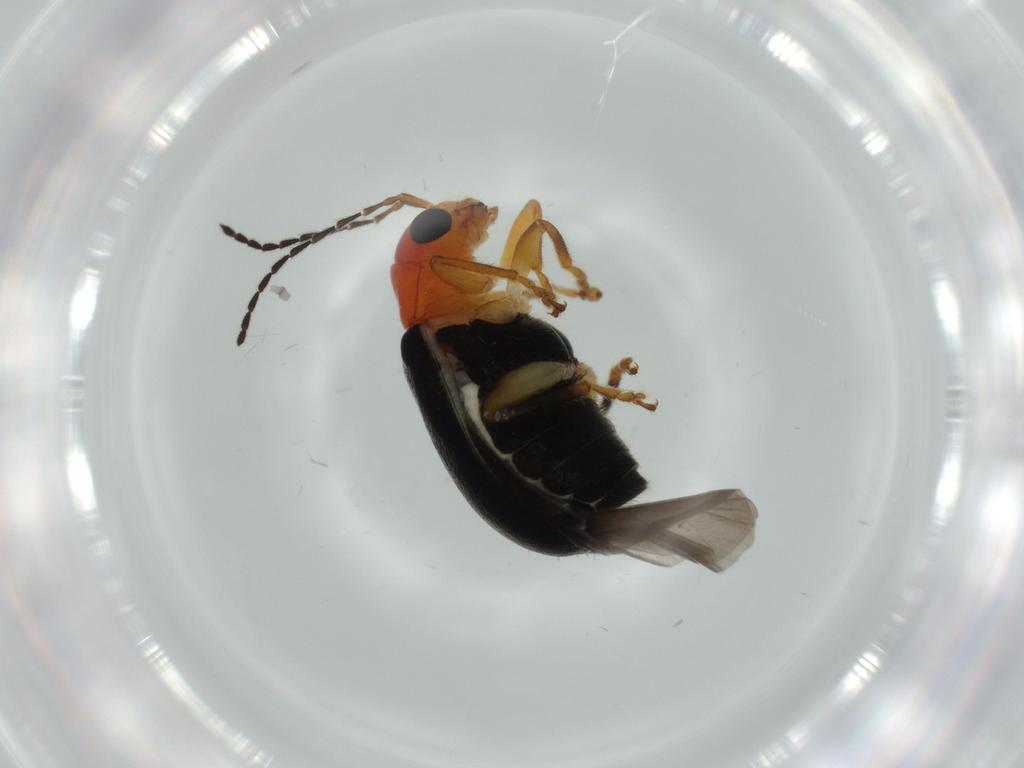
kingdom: Animalia
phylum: Arthropoda
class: Insecta
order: Coleoptera
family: Chrysomelidae
